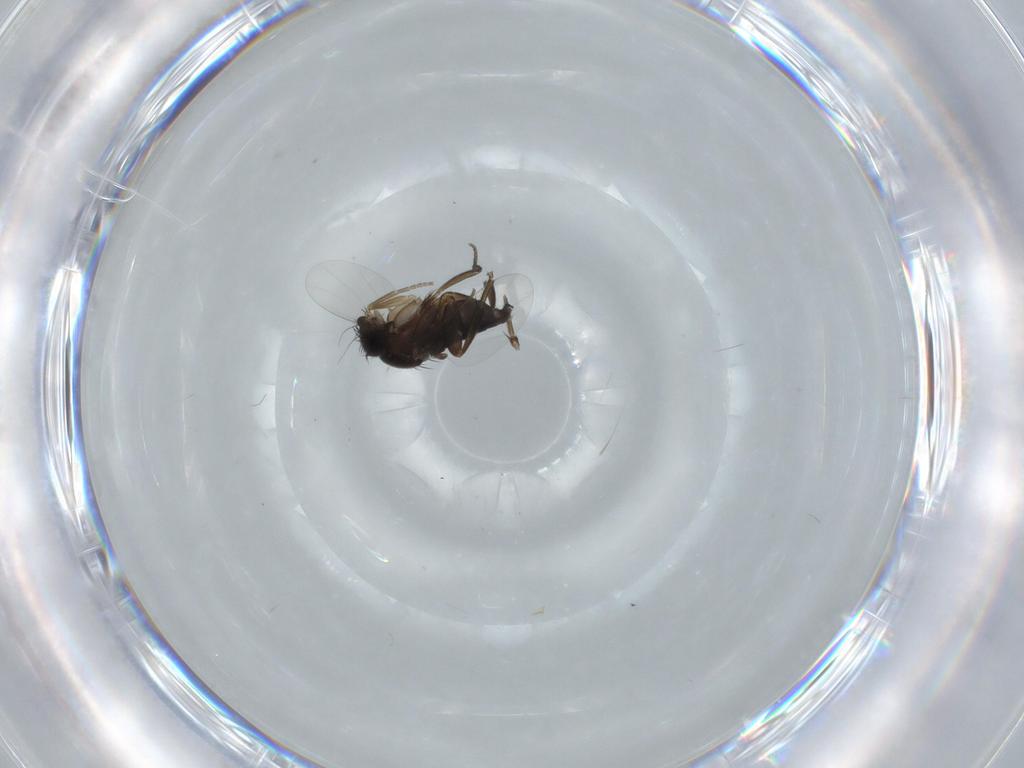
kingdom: Animalia
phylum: Arthropoda
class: Insecta
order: Diptera
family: Phoridae
